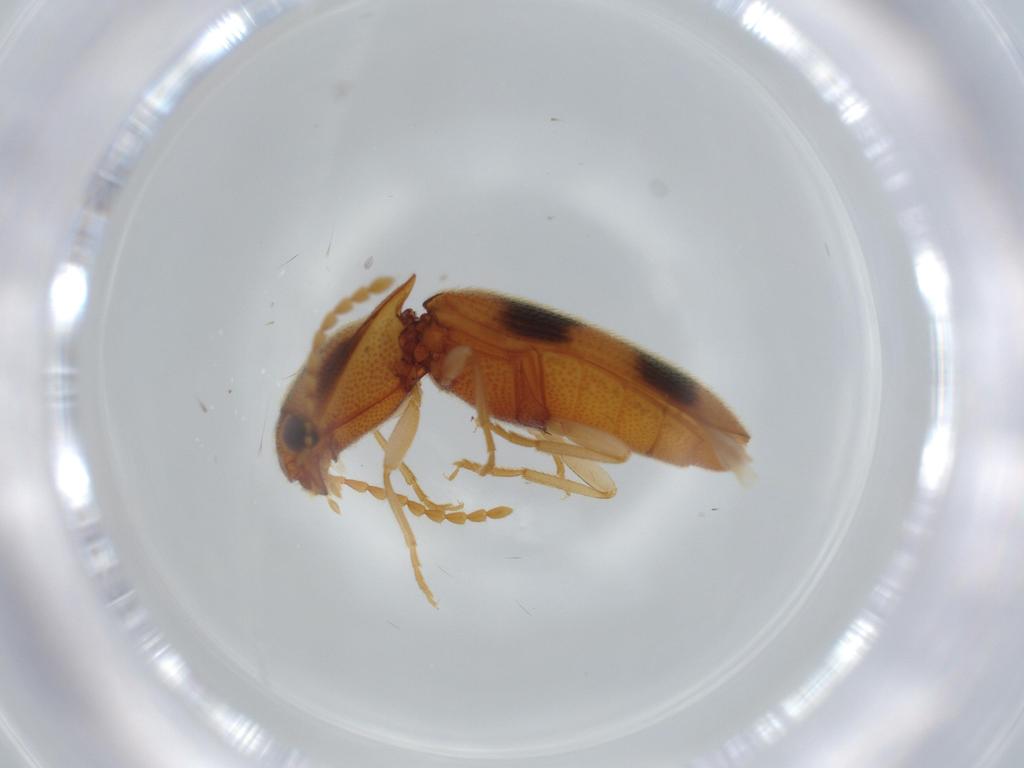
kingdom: Animalia
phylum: Arthropoda
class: Insecta
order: Coleoptera
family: Elateridae
